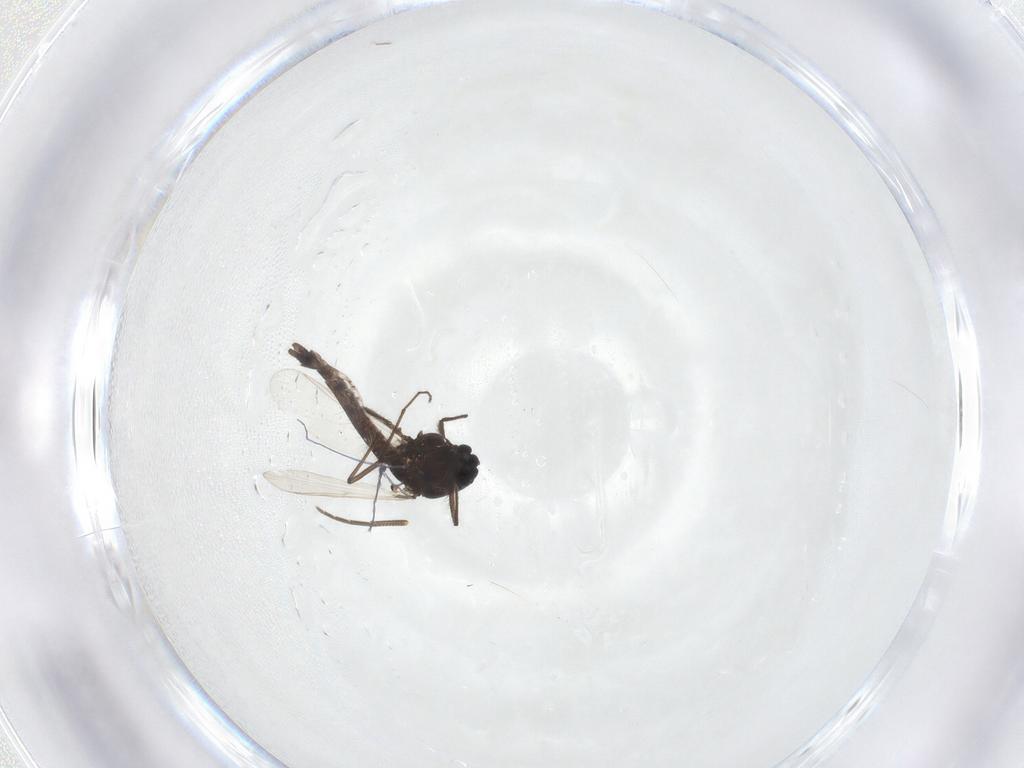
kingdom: Animalia
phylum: Arthropoda
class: Insecta
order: Diptera
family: Chironomidae
